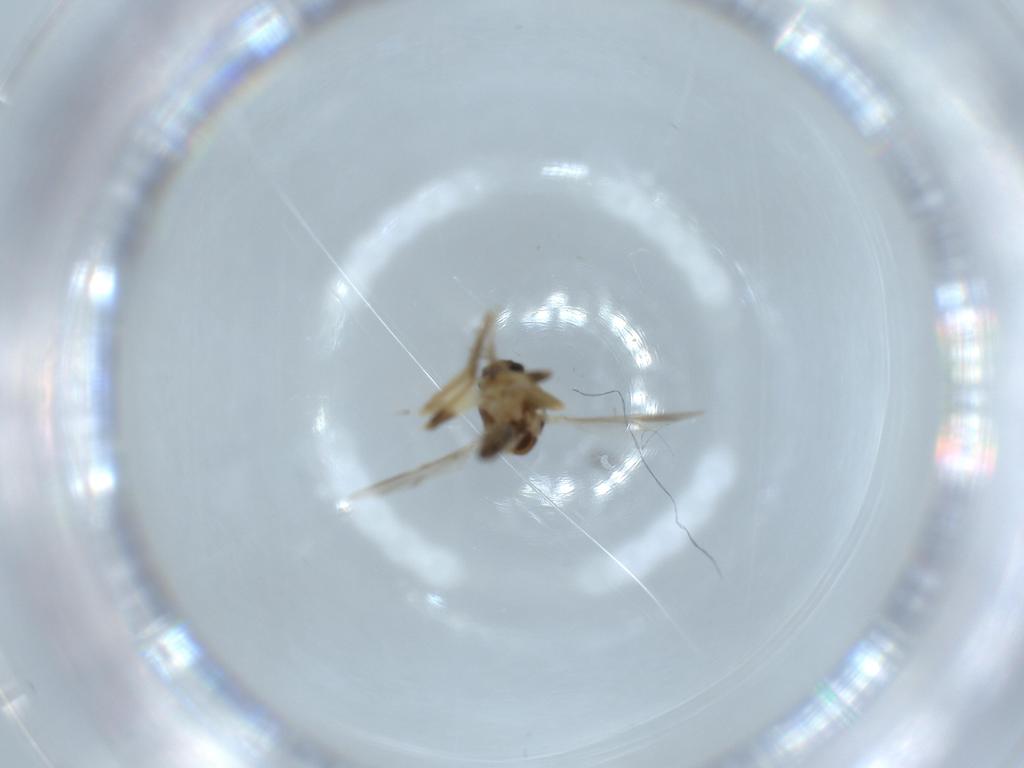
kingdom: Animalia
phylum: Arthropoda
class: Insecta
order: Diptera
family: Ceratopogonidae
